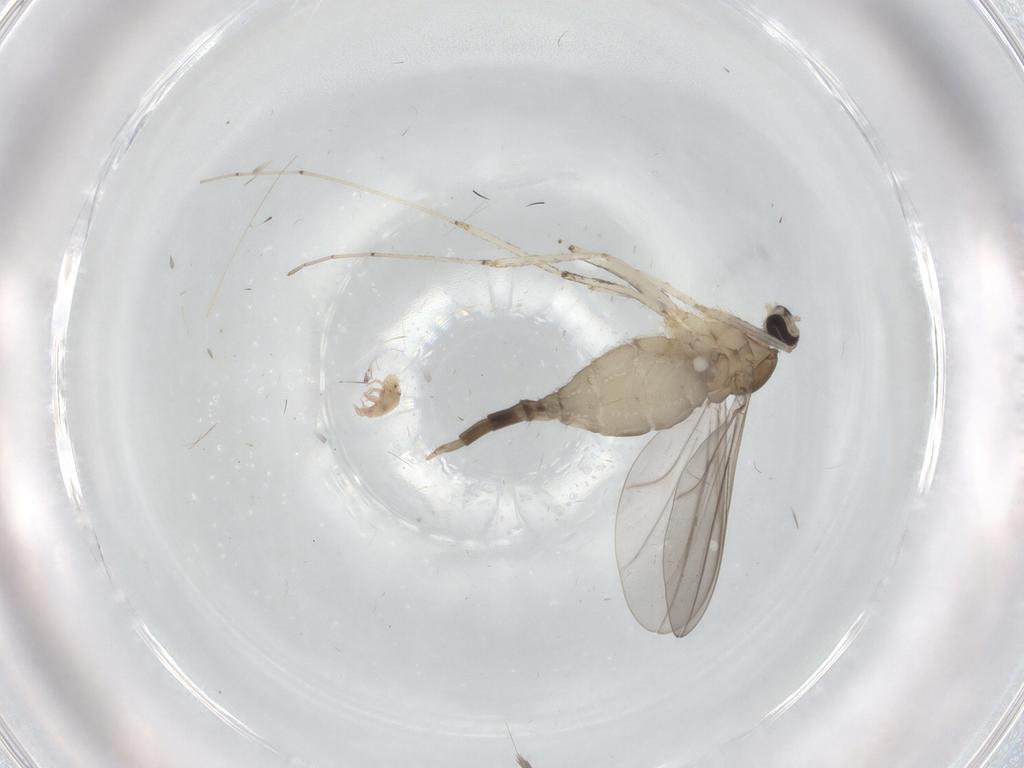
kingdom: Animalia
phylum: Arthropoda
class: Insecta
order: Diptera
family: Cecidomyiidae
